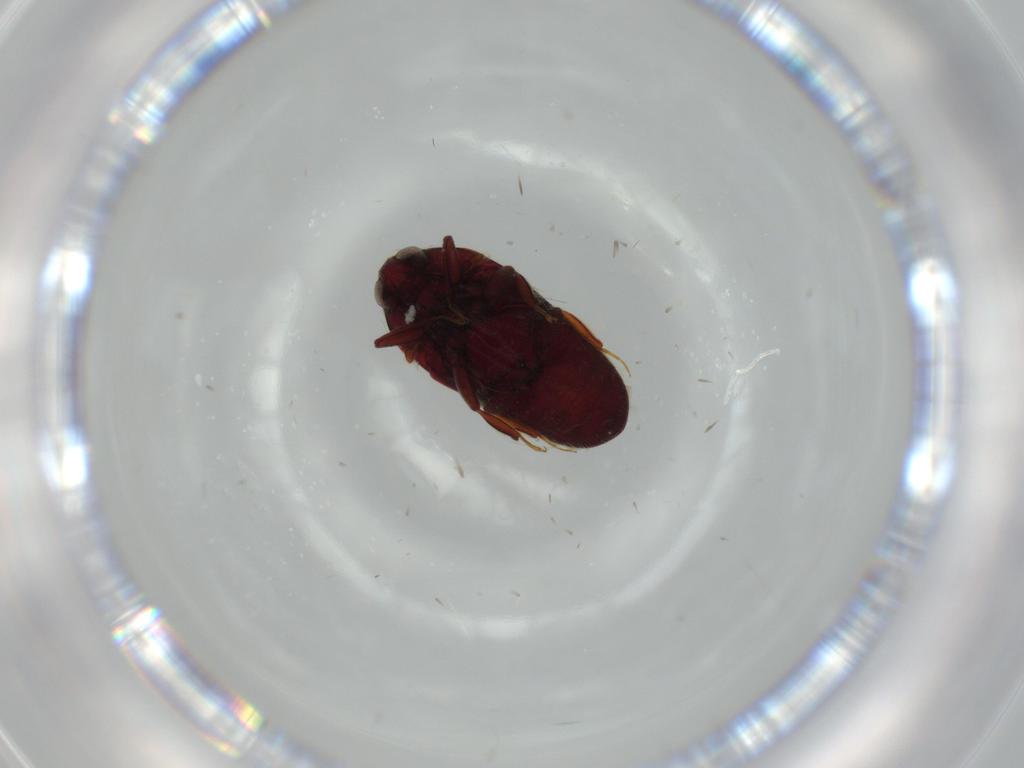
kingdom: Animalia
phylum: Arthropoda
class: Insecta
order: Coleoptera
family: Throscidae
